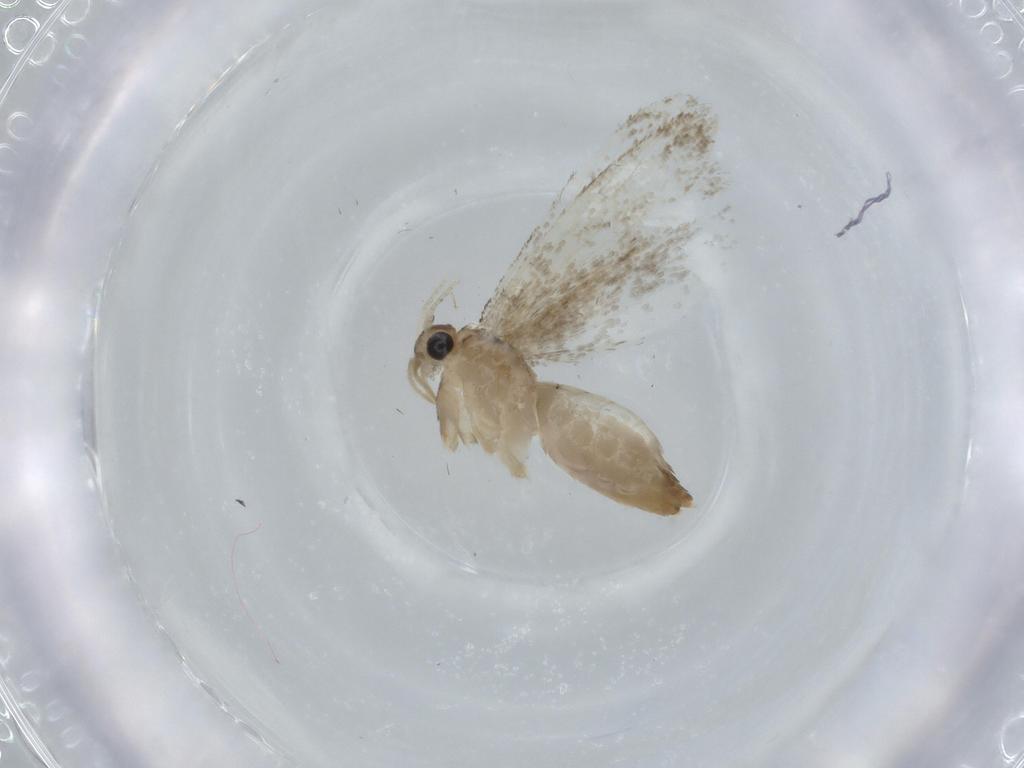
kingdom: Animalia
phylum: Arthropoda
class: Insecta
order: Lepidoptera
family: Tineidae
